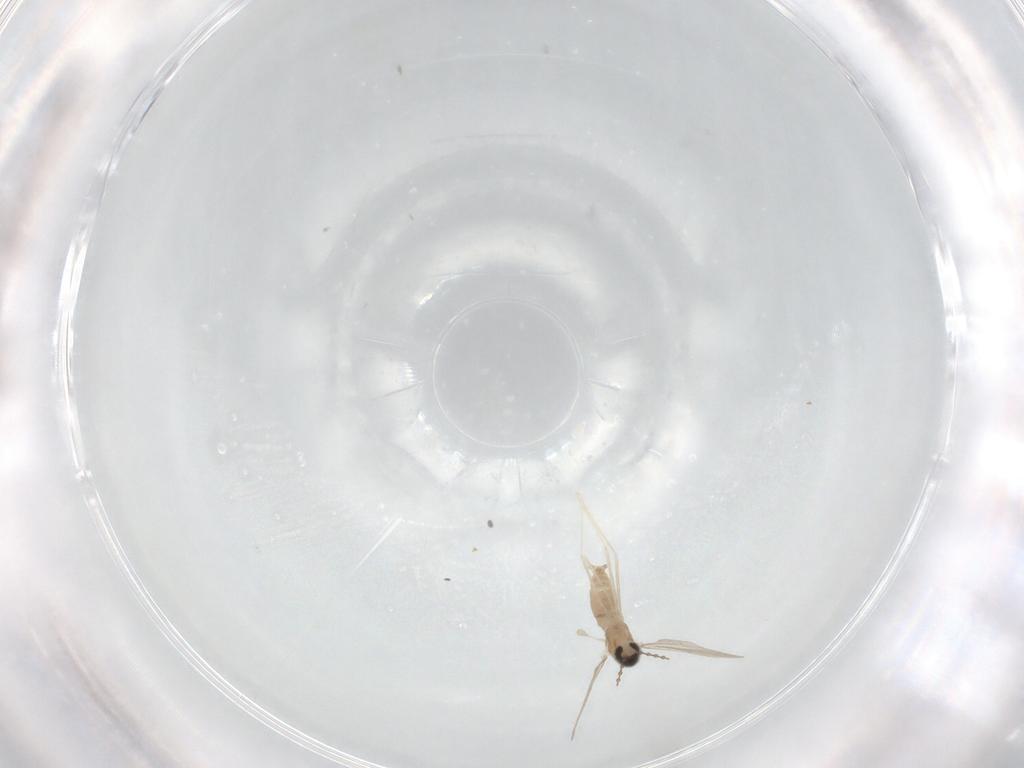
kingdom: Animalia
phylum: Arthropoda
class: Insecta
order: Diptera
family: Cecidomyiidae
